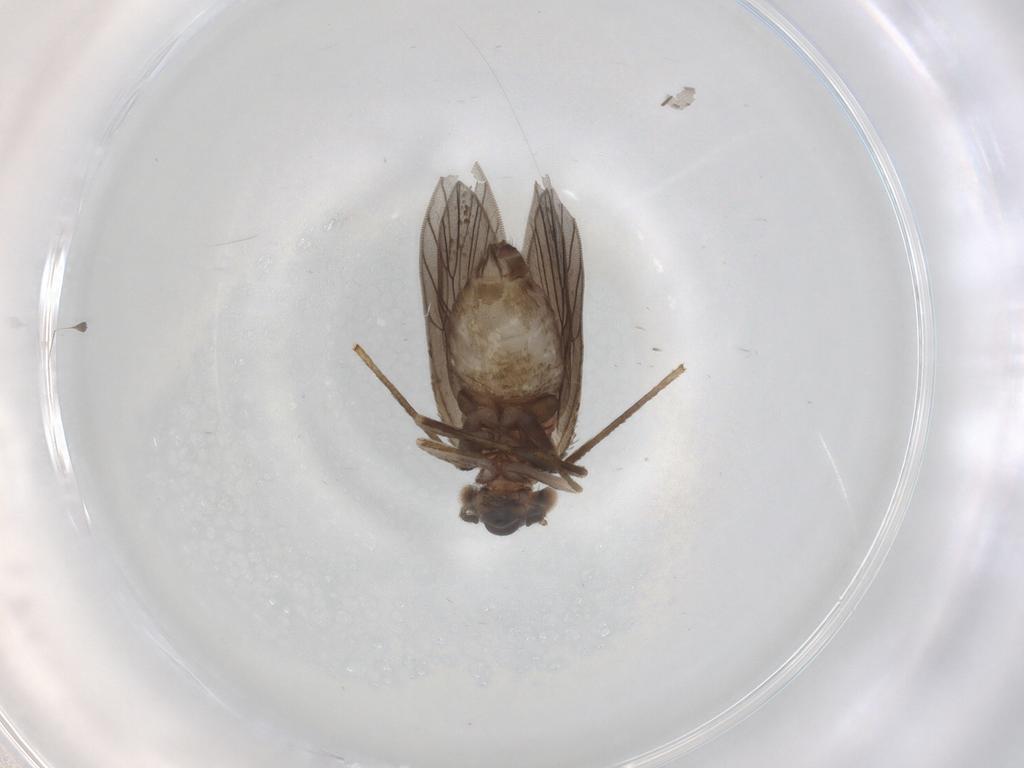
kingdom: Animalia
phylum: Arthropoda
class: Insecta
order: Psocodea
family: Lepidopsocidae
